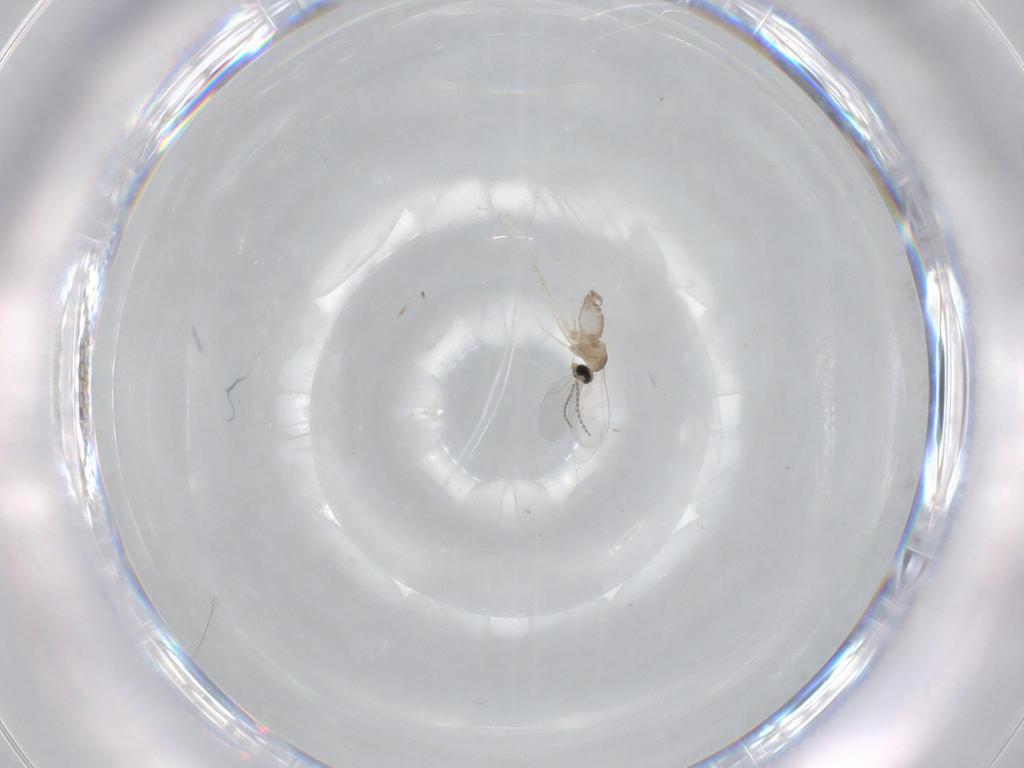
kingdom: Animalia
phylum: Arthropoda
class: Insecta
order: Diptera
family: Cecidomyiidae
